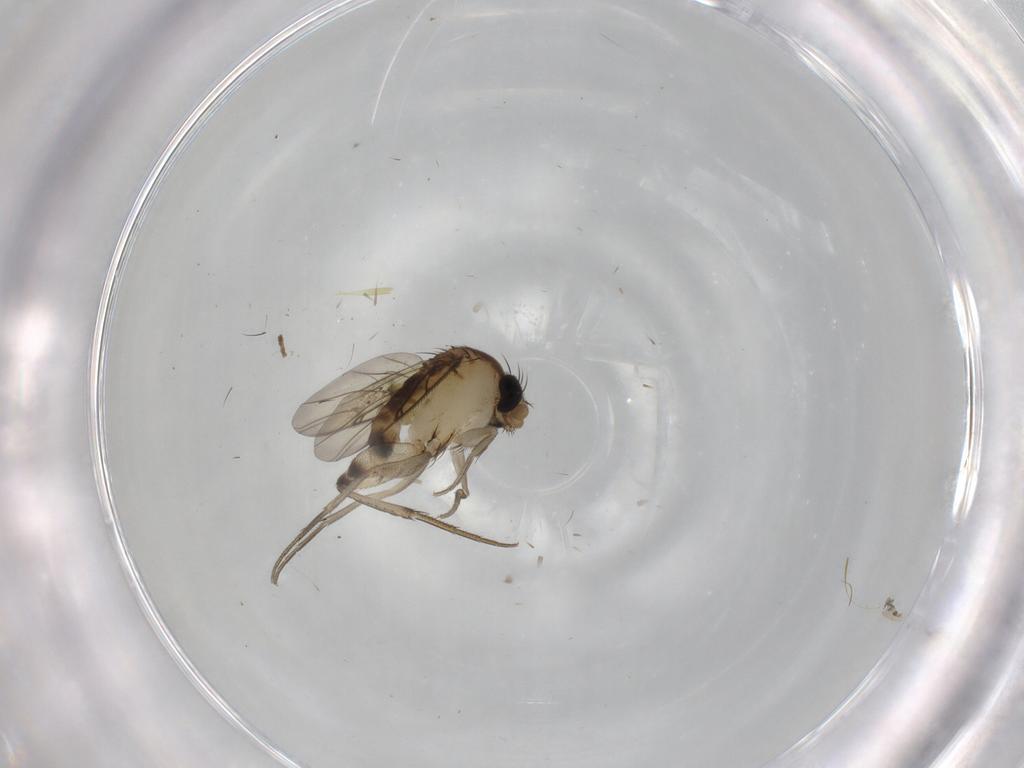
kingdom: Animalia
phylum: Arthropoda
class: Insecta
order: Diptera
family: Phoridae
